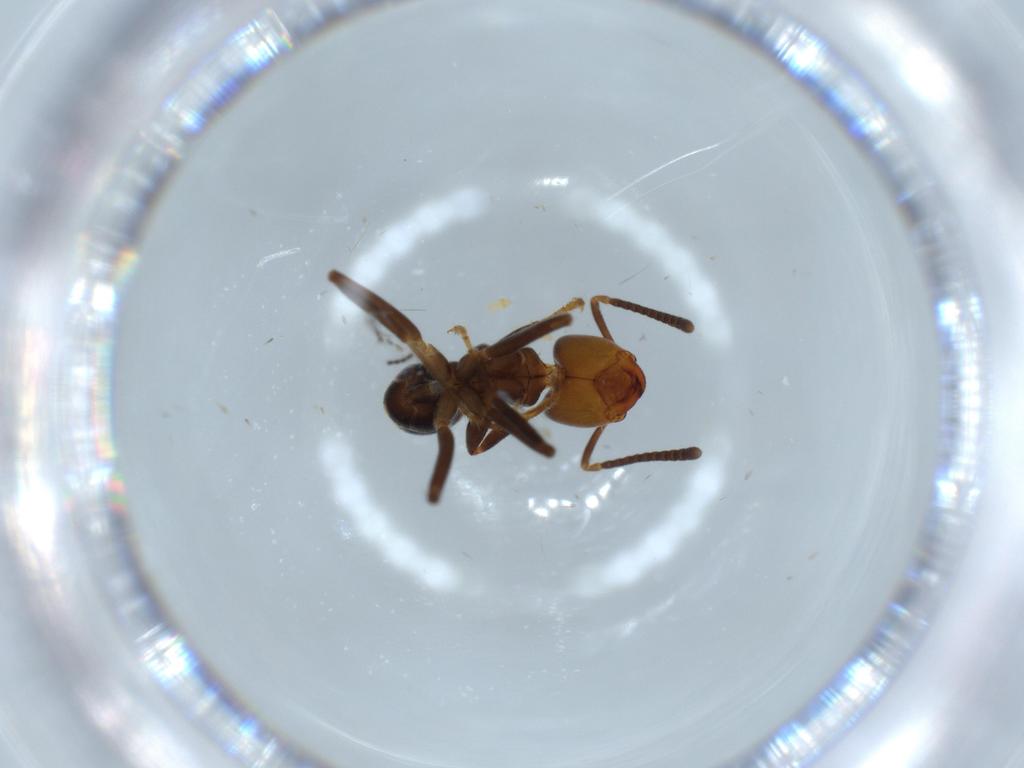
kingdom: Animalia
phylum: Arthropoda
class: Insecta
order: Hymenoptera
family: Formicidae
